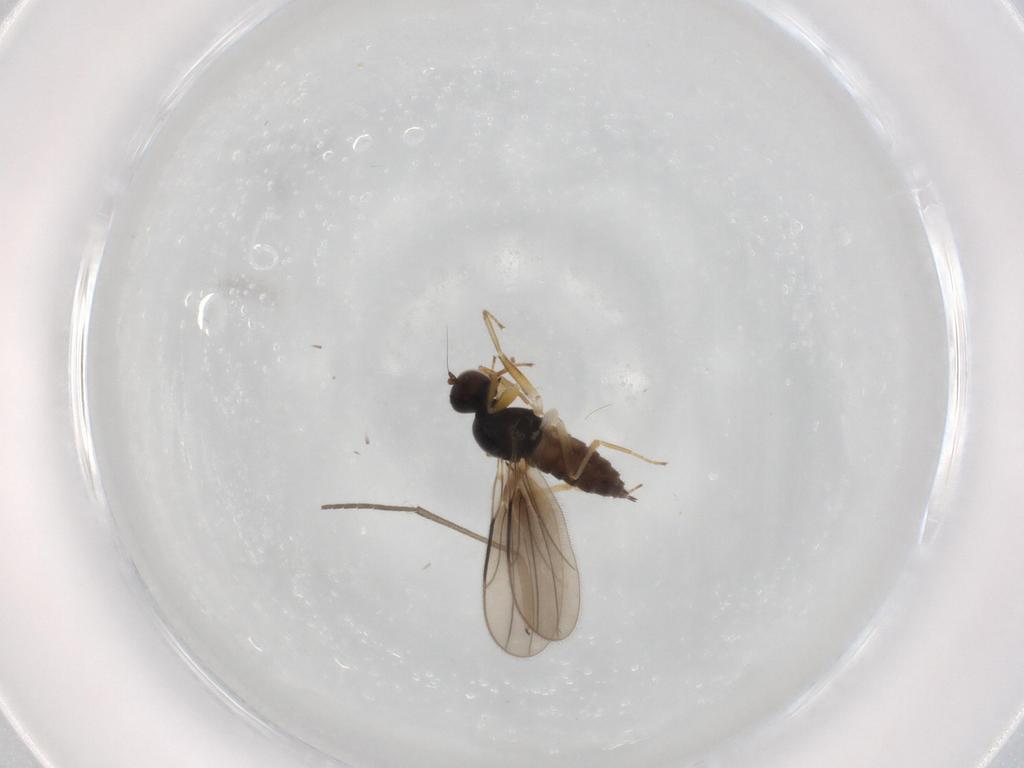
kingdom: Animalia
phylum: Arthropoda
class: Insecta
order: Diptera
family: Hybotidae
